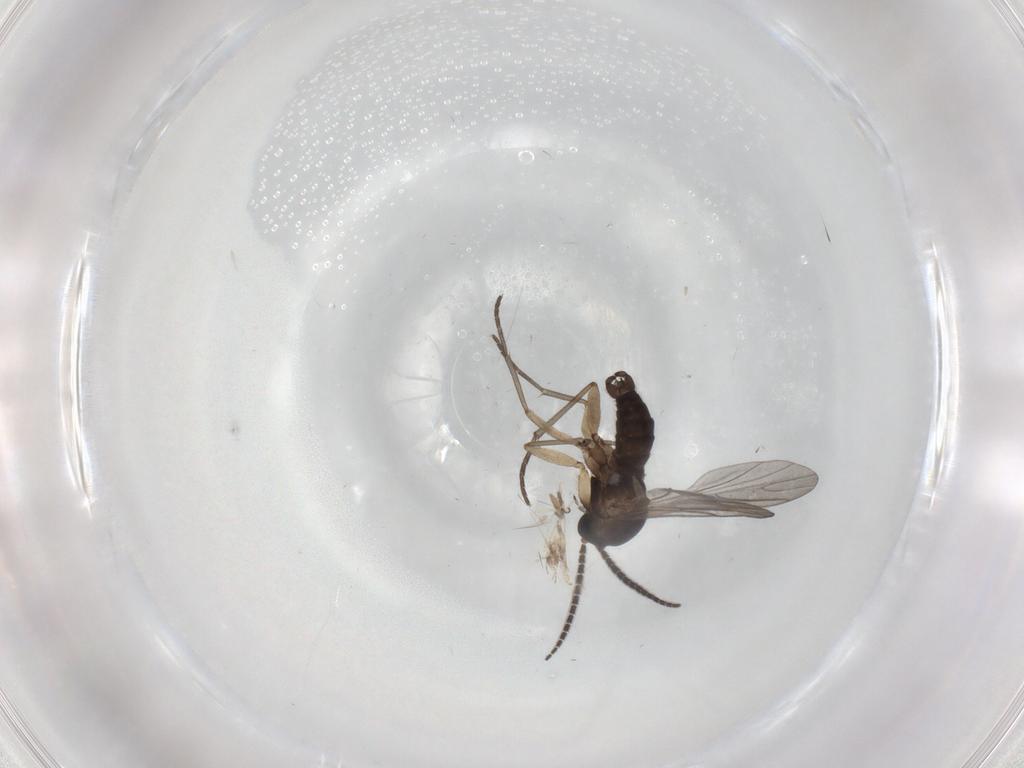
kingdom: Animalia
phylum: Arthropoda
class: Insecta
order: Diptera
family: Sciaridae
